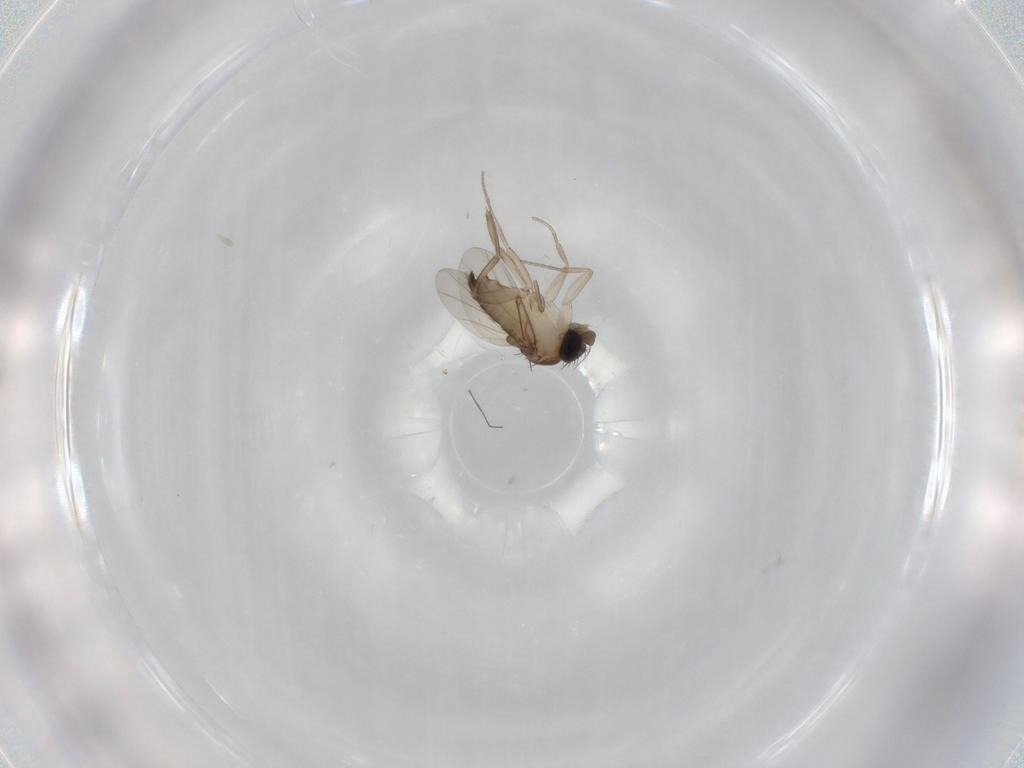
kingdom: Animalia
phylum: Arthropoda
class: Insecta
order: Diptera
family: Phoridae
